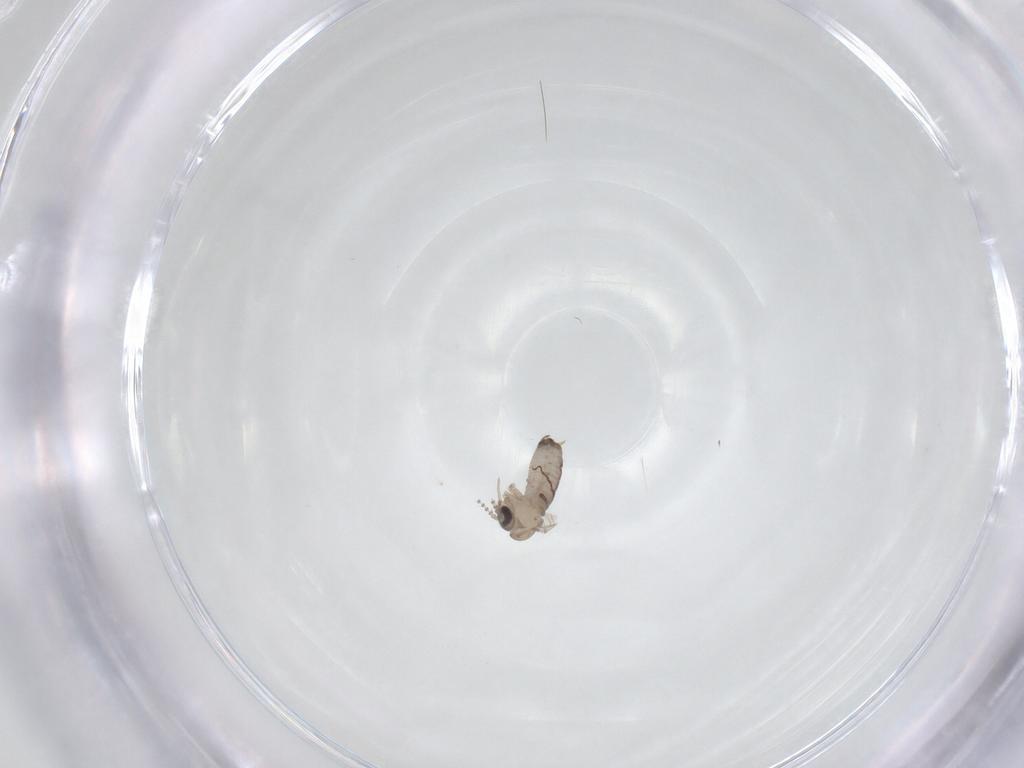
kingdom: Animalia
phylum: Arthropoda
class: Insecta
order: Diptera
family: Psychodidae
